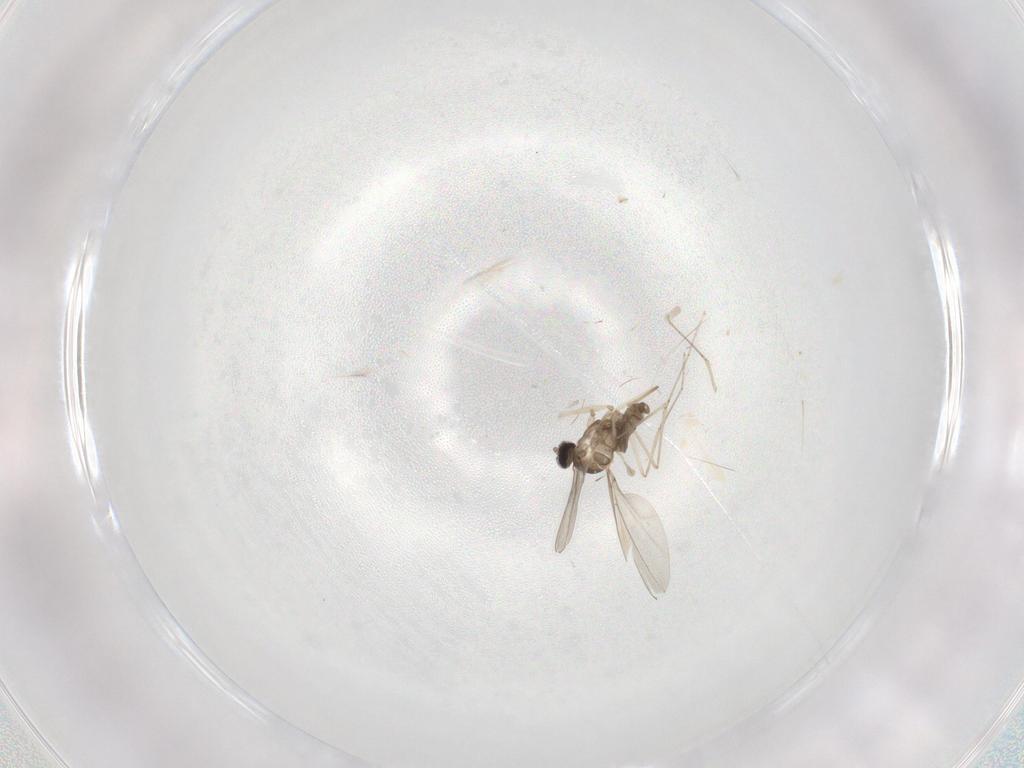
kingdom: Animalia
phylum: Arthropoda
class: Insecta
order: Diptera
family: Cecidomyiidae
